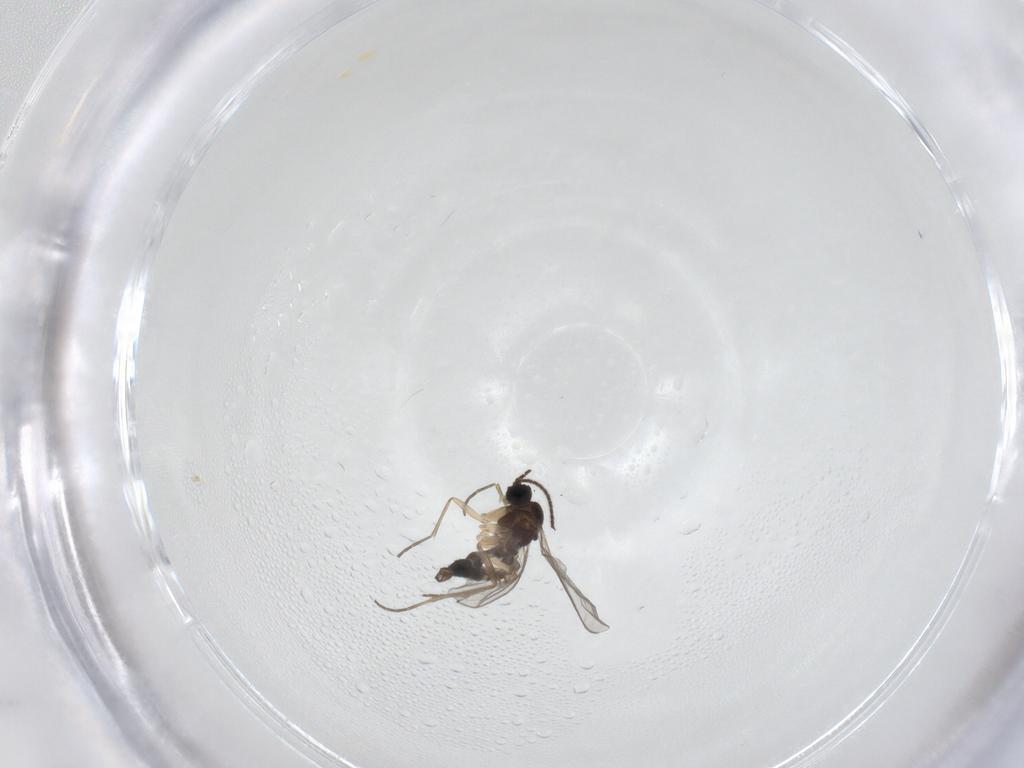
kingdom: Animalia
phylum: Arthropoda
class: Insecta
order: Diptera
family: Sciaridae
